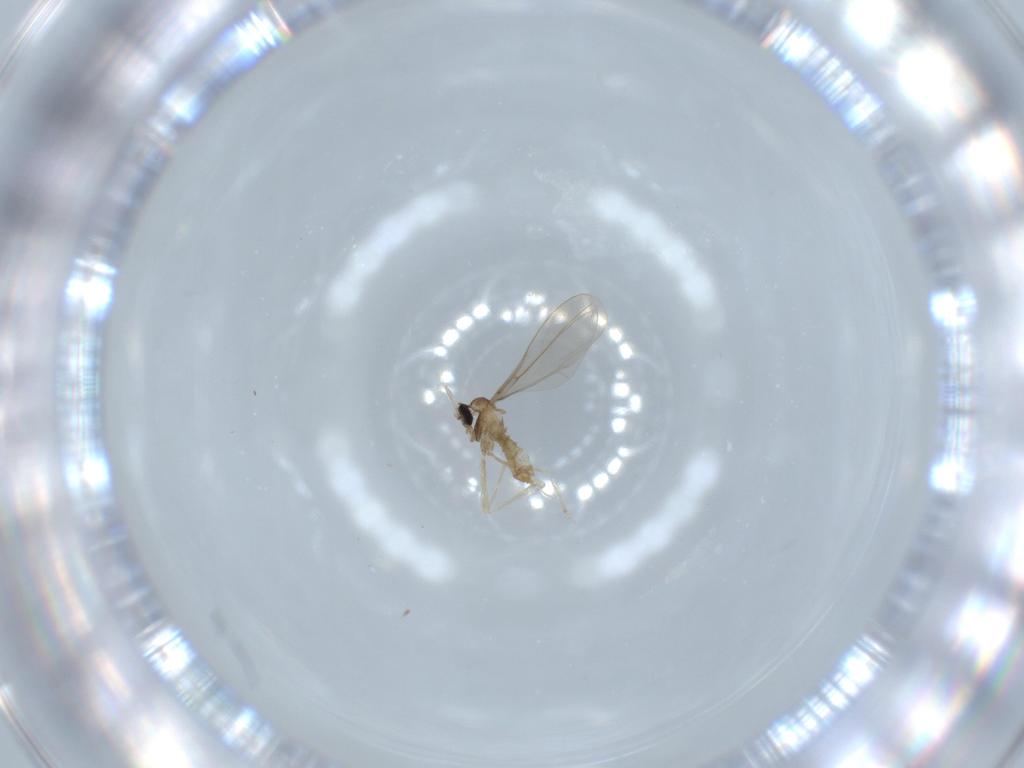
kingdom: Animalia
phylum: Arthropoda
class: Insecta
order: Diptera
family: Cecidomyiidae
